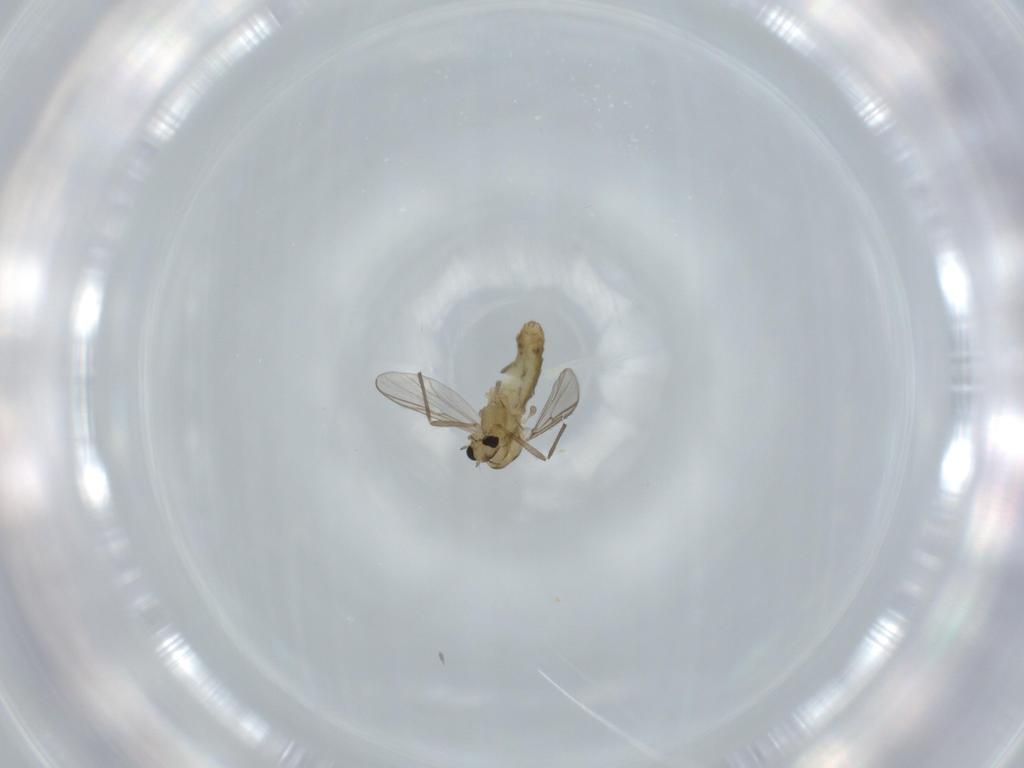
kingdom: Animalia
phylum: Arthropoda
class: Insecta
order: Diptera
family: Chironomidae
